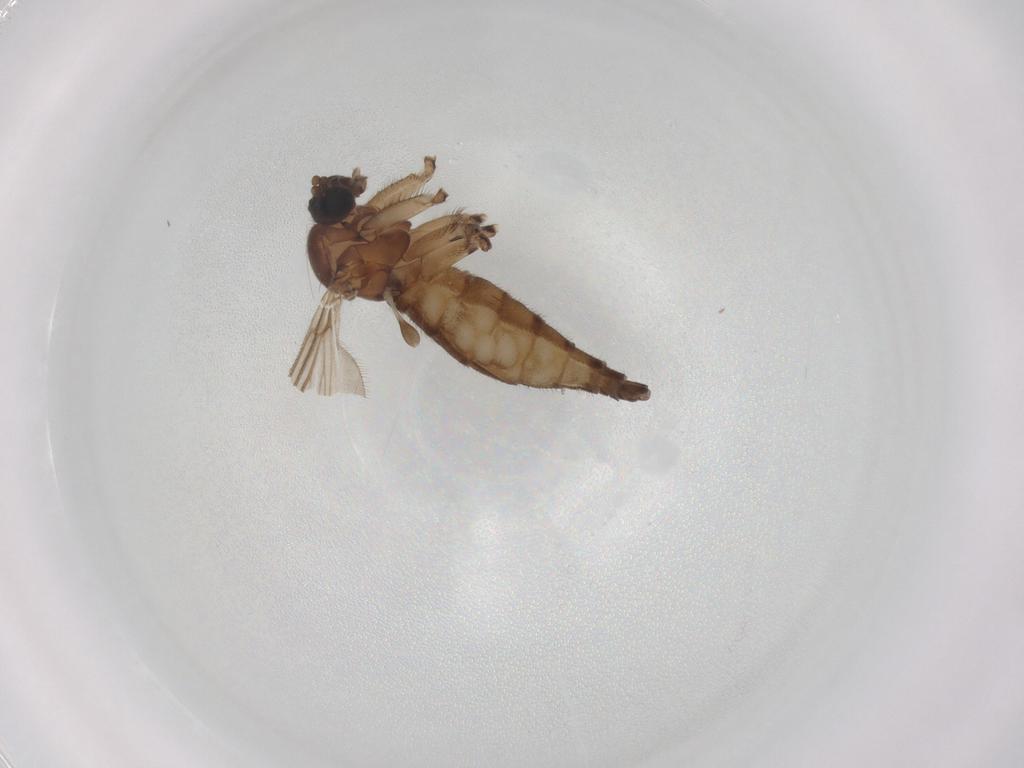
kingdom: Animalia
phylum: Arthropoda
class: Insecta
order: Diptera
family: Sciaridae
